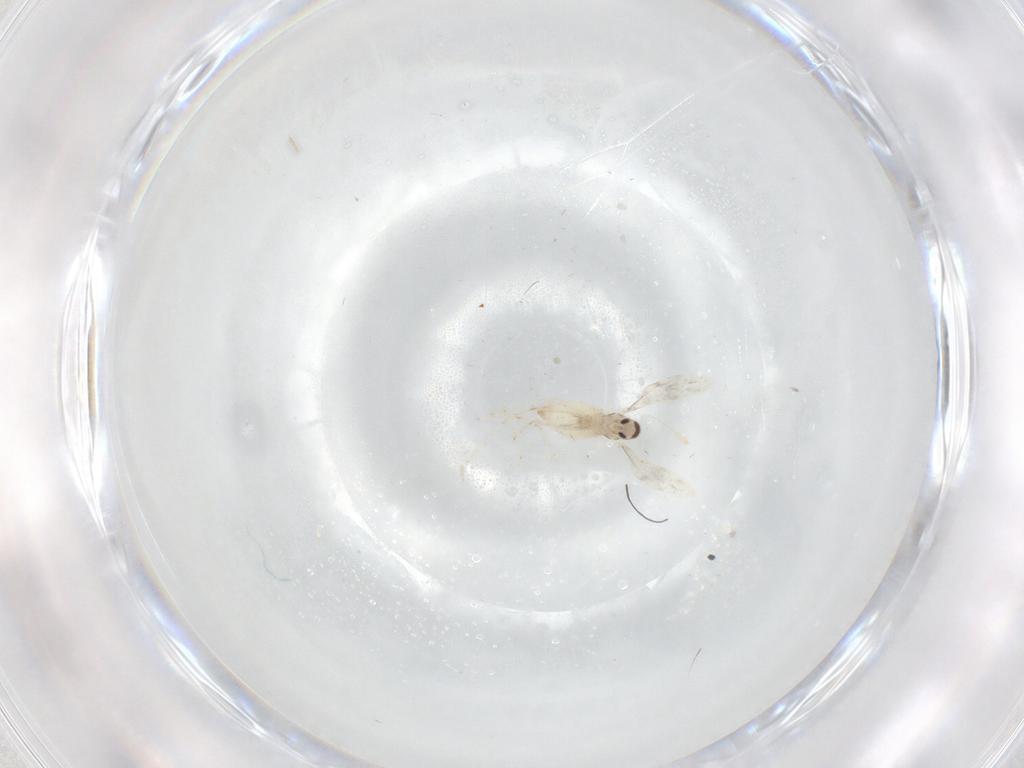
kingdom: Animalia
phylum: Arthropoda
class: Insecta
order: Diptera
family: Cecidomyiidae
